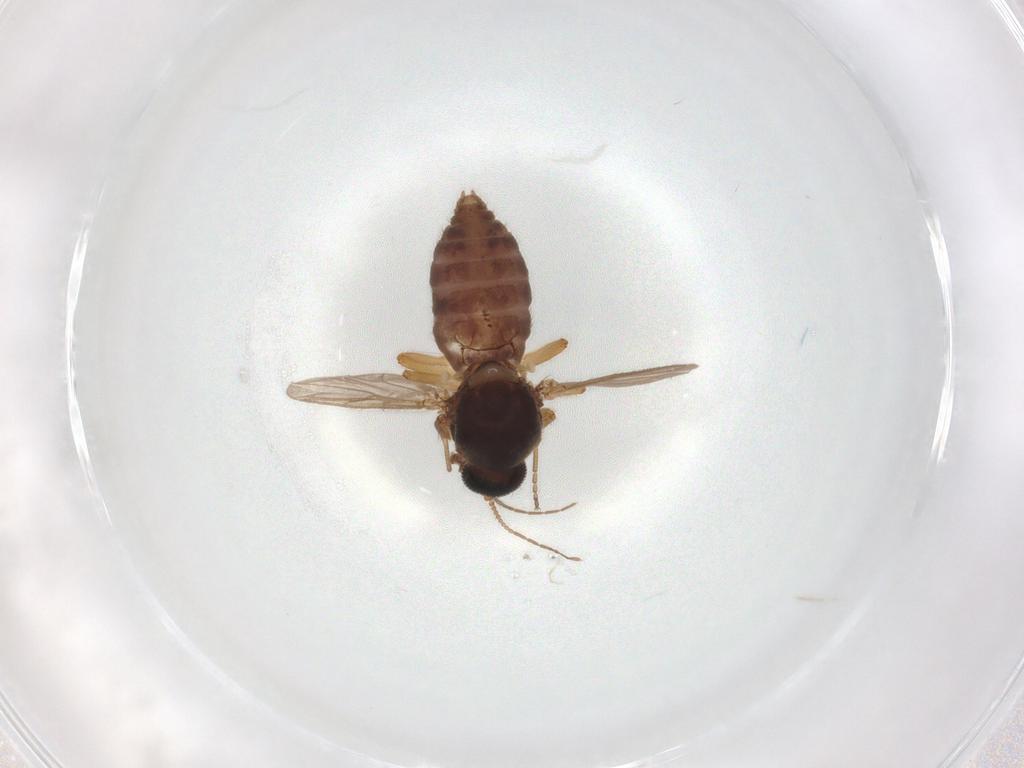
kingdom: Animalia
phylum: Arthropoda
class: Insecta
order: Diptera
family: Ceratopogonidae
